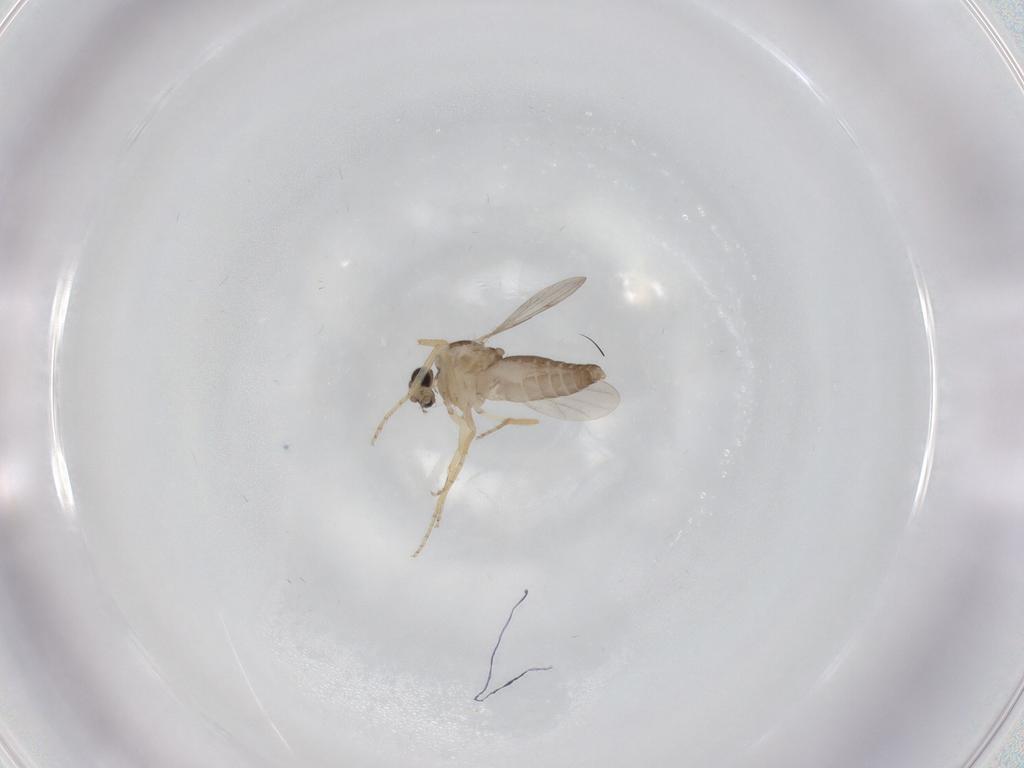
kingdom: Animalia
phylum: Arthropoda
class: Insecta
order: Diptera
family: Ceratopogonidae
